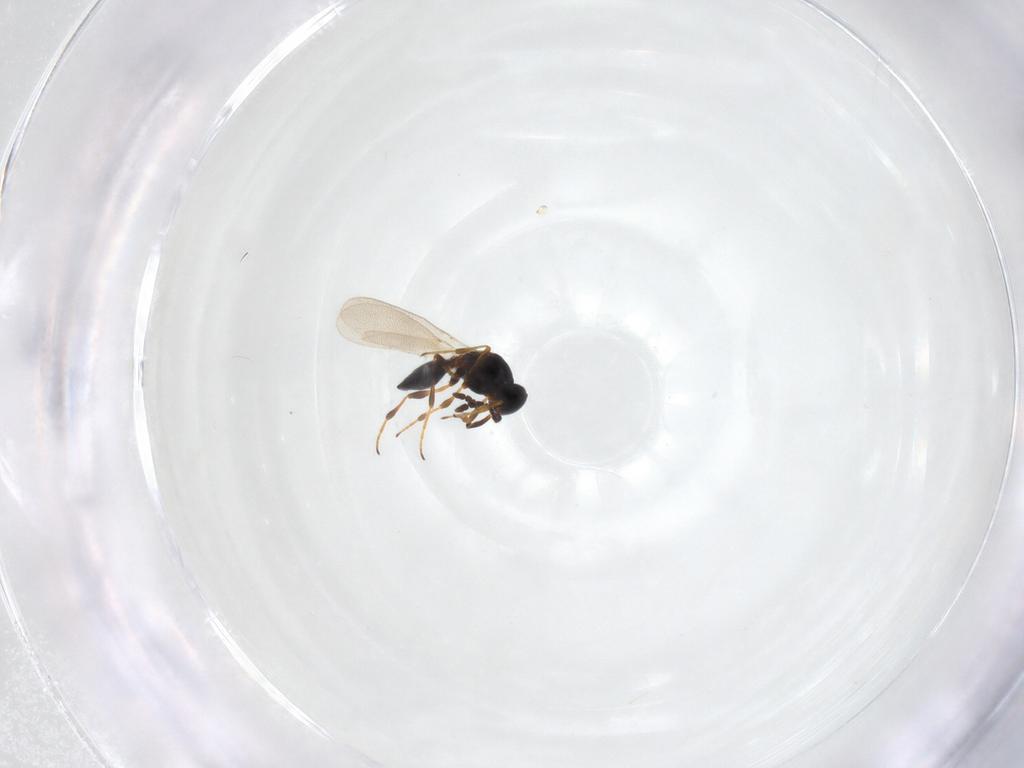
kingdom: Animalia
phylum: Arthropoda
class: Insecta
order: Hymenoptera
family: Platygastridae
